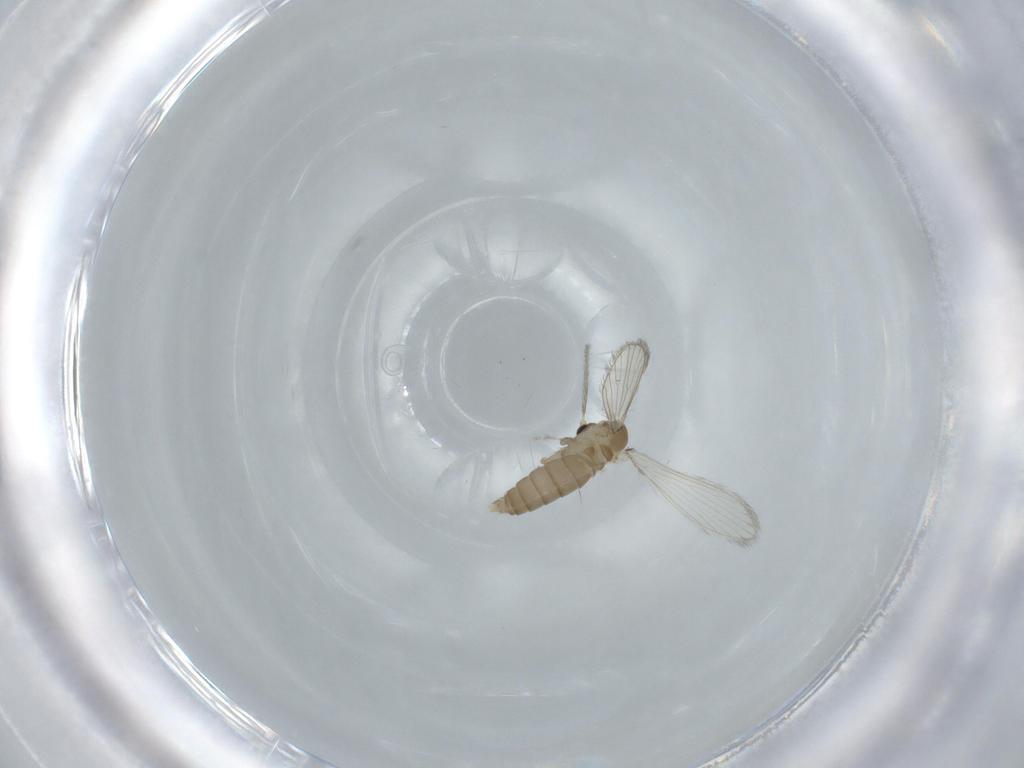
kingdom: Animalia
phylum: Arthropoda
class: Insecta
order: Diptera
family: Psychodidae
